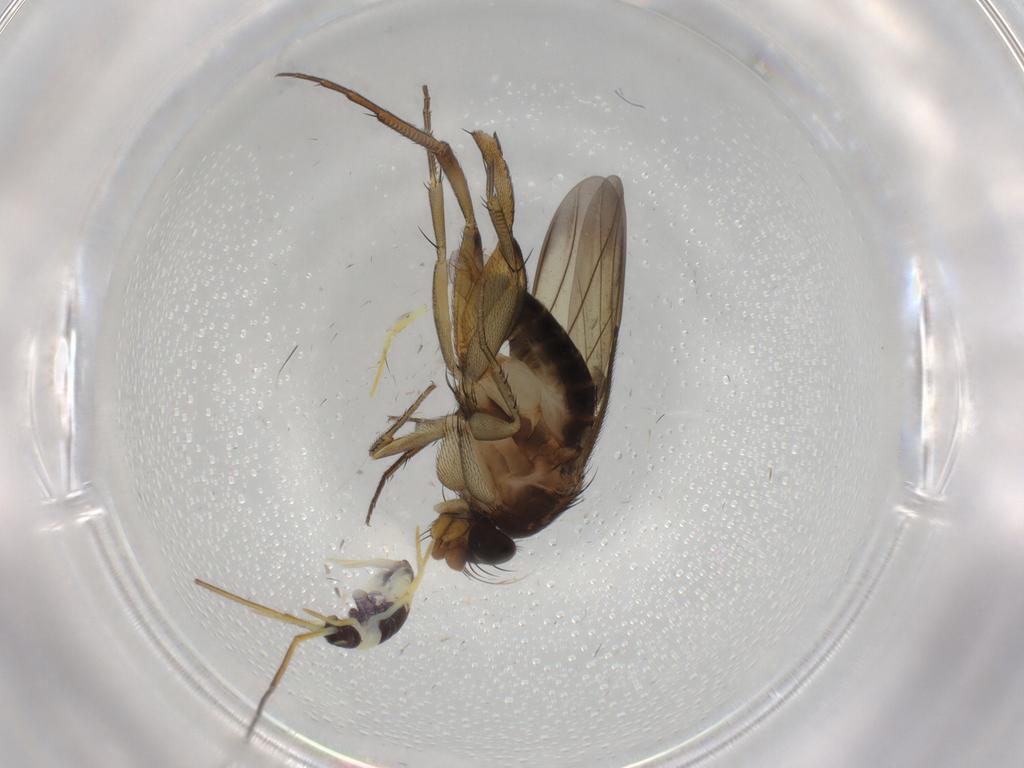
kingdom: Animalia
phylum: Arthropoda
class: Insecta
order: Diptera
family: Phoridae
